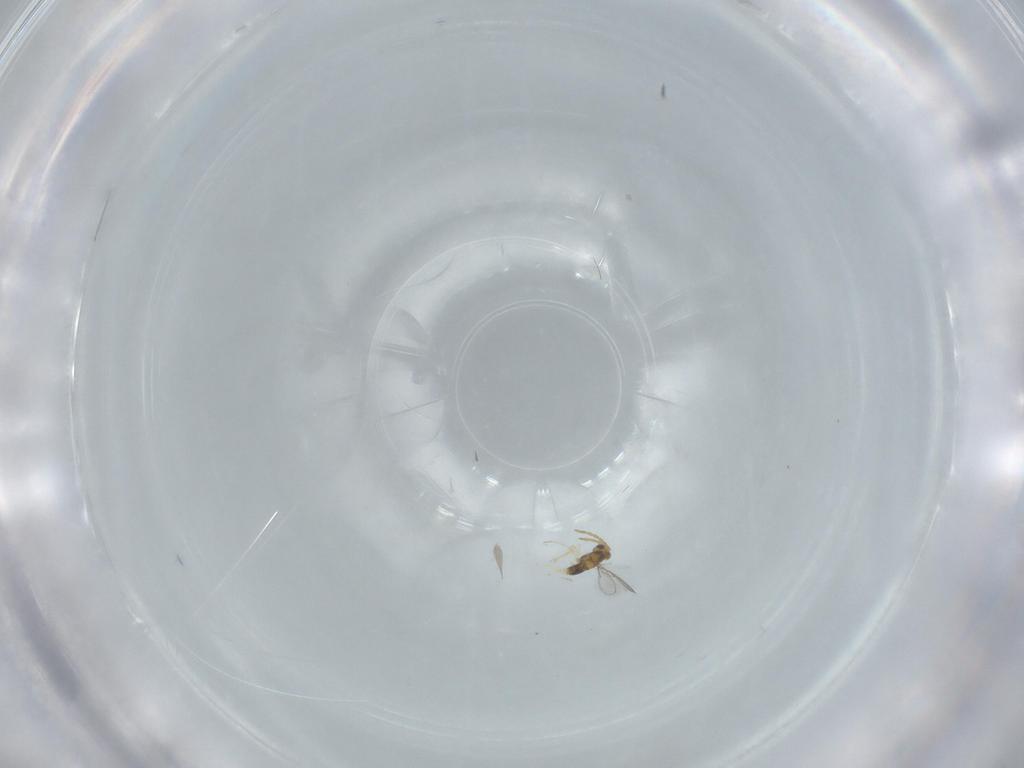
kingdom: Animalia
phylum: Arthropoda
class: Insecta
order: Hymenoptera
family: Aphelinidae
